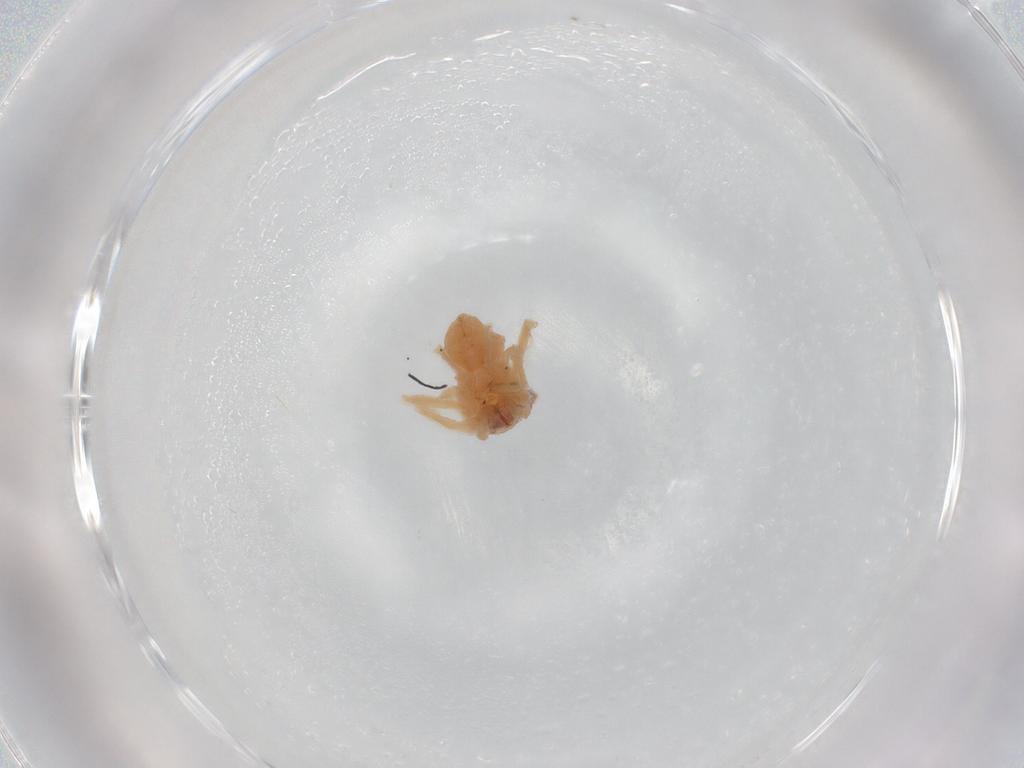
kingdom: Animalia
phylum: Arthropoda
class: Arachnida
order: Araneae
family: Thomisidae
